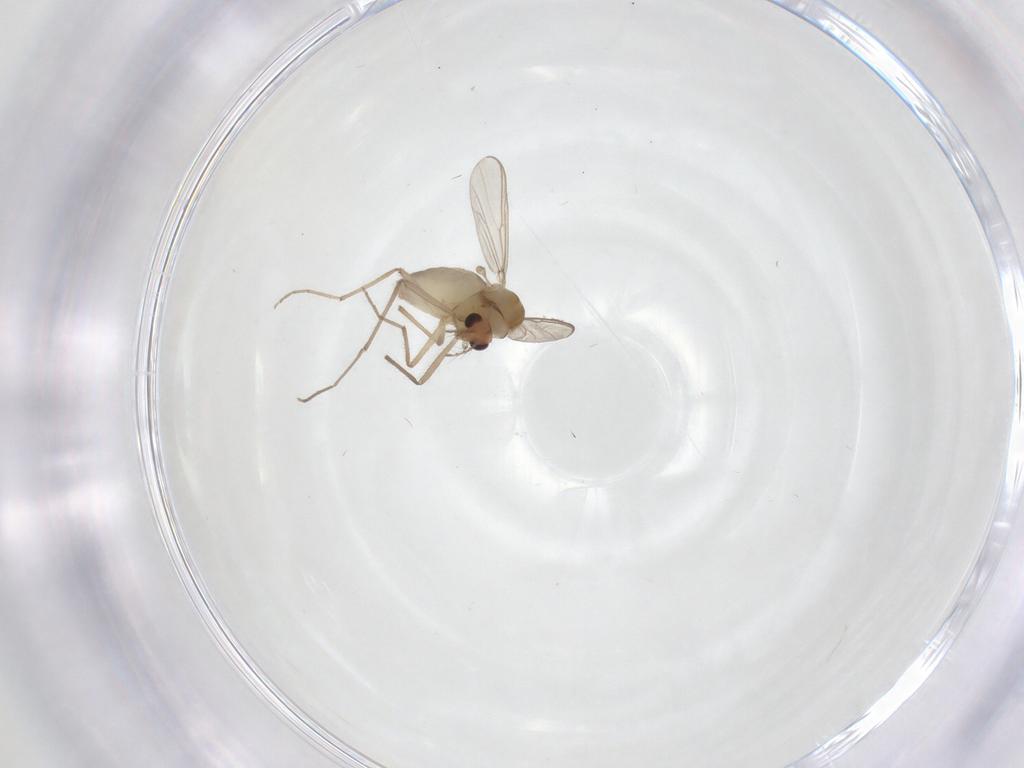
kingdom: Animalia
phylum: Arthropoda
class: Insecta
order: Diptera
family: Chironomidae
